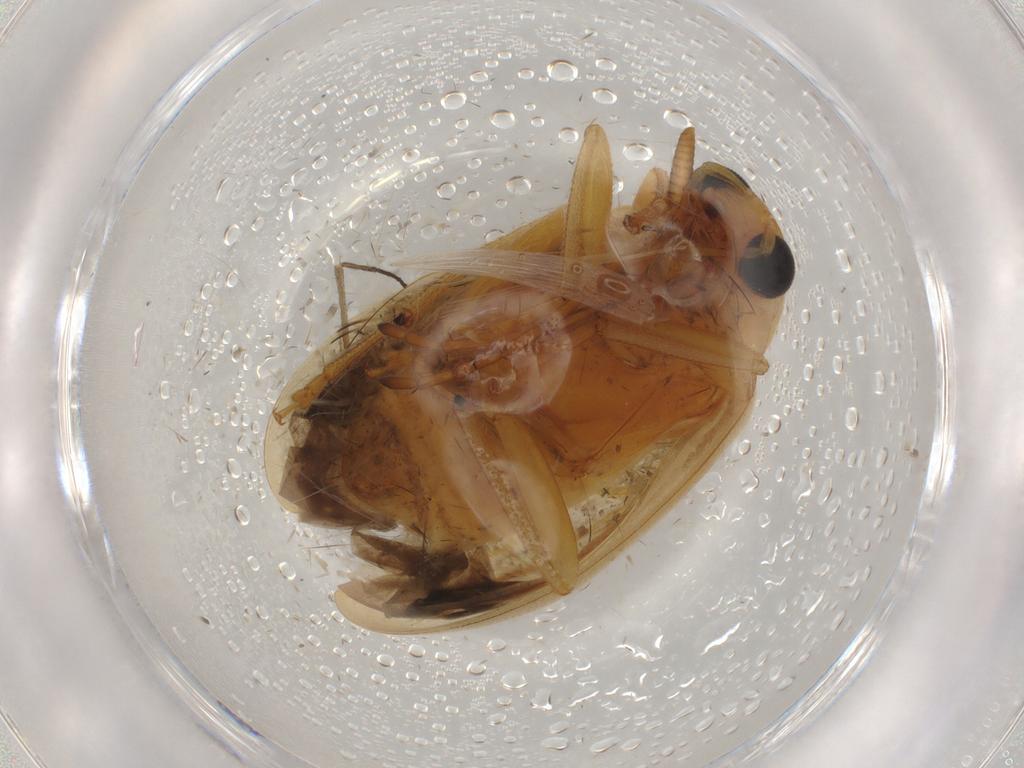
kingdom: Animalia
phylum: Arthropoda
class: Insecta
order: Coleoptera
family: Chrysomelidae
